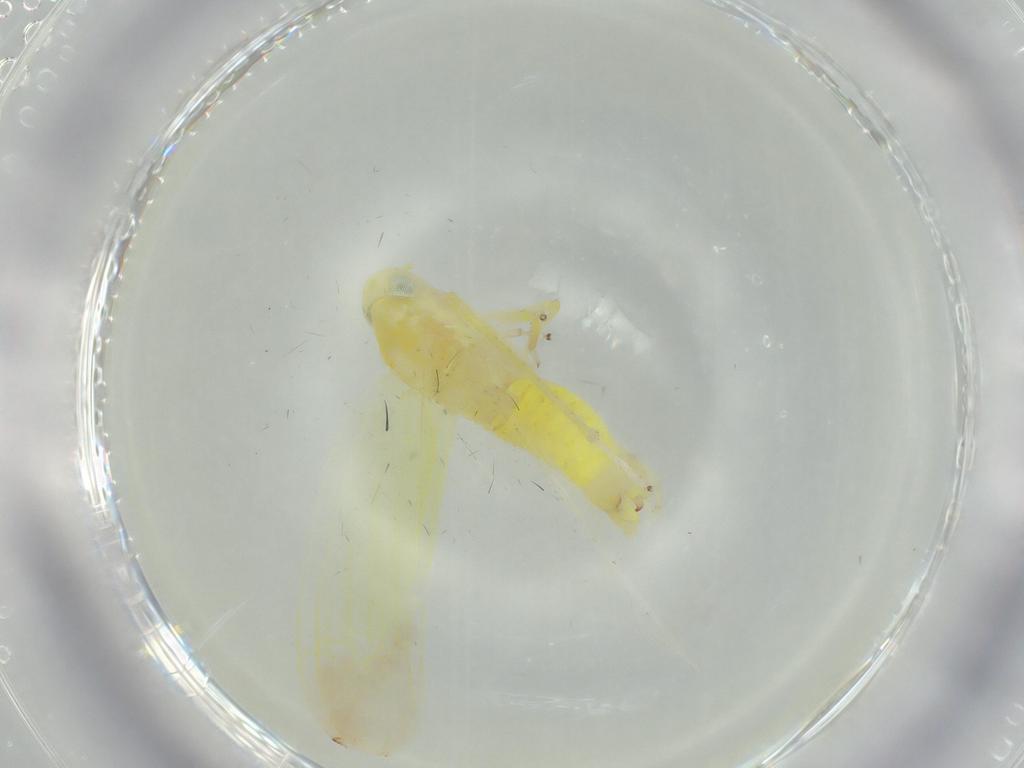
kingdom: Animalia
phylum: Arthropoda
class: Insecta
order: Hemiptera
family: Cicadellidae
